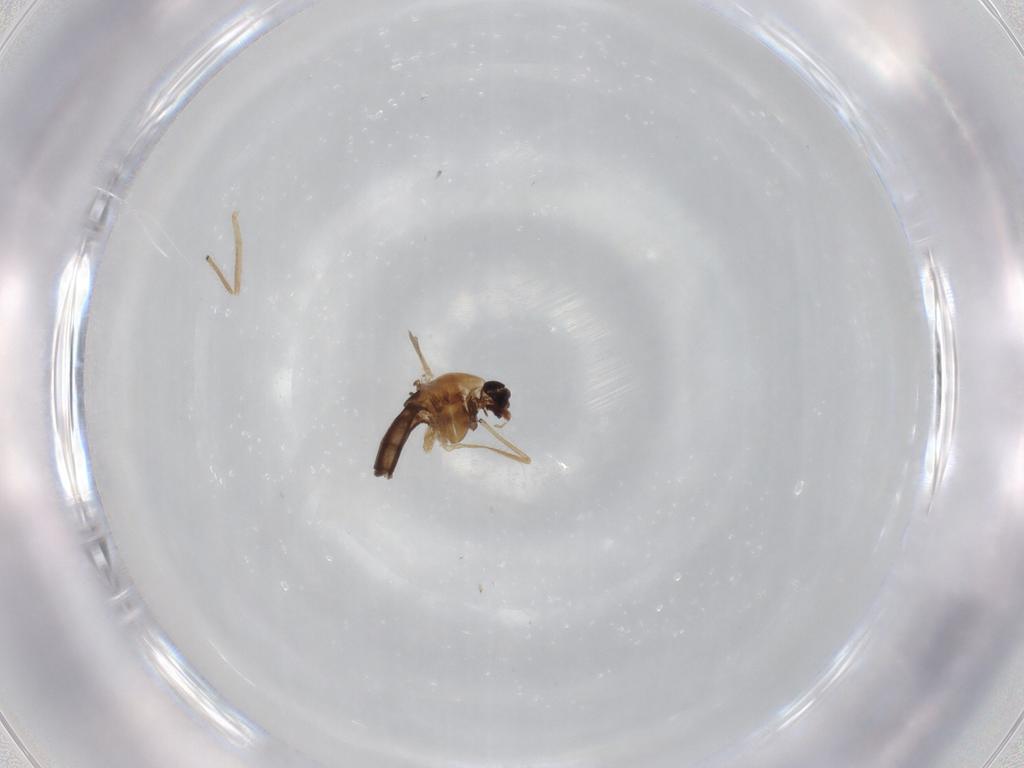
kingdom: Animalia
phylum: Arthropoda
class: Insecta
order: Diptera
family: Chironomidae
